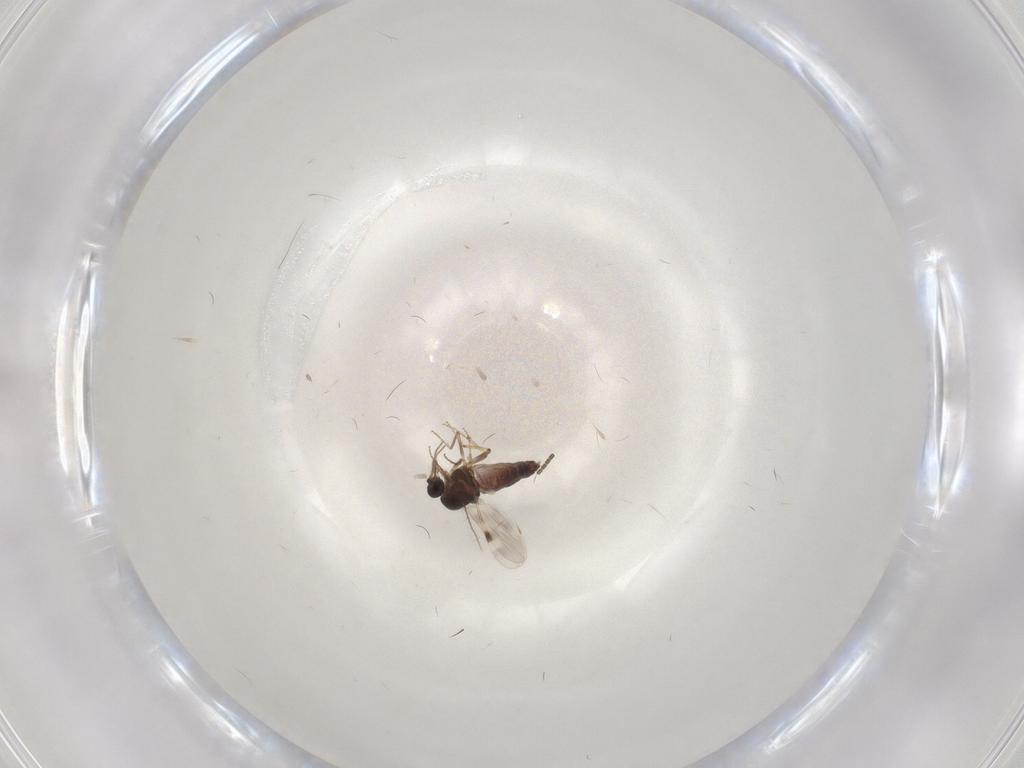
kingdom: Animalia
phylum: Arthropoda
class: Insecta
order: Diptera
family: Sciaridae
